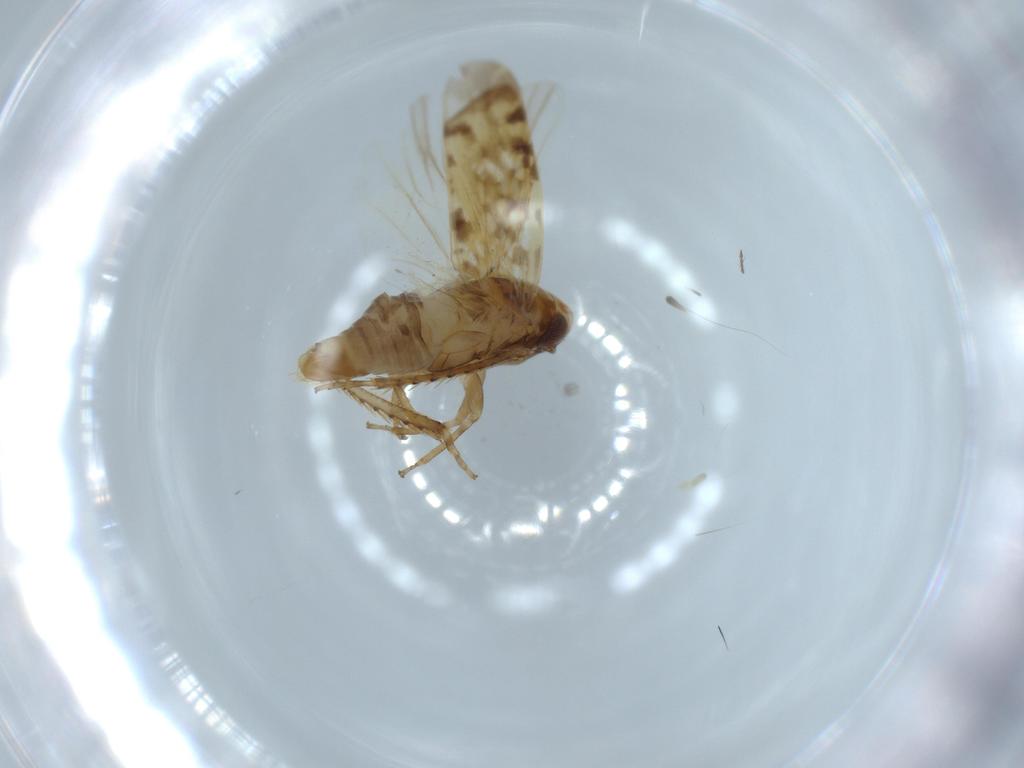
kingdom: Animalia
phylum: Arthropoda
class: Insecta
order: Hemiptera
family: Cicadellidae
